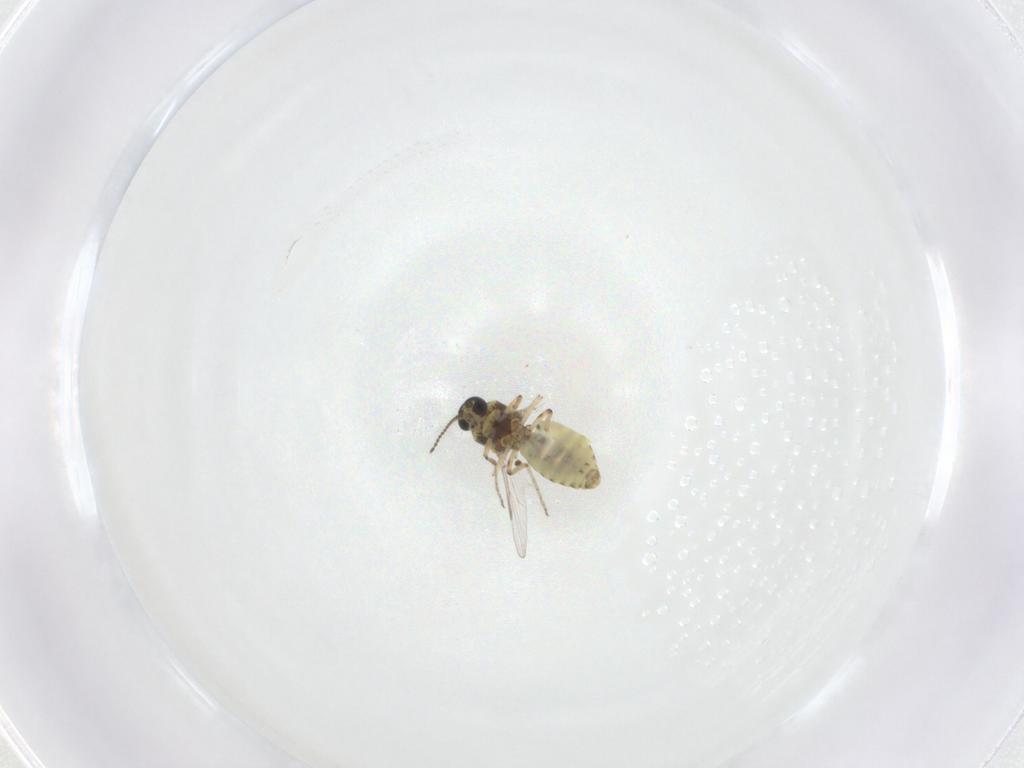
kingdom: Animalia
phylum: Arthropoda
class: Insecta
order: Diptera
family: Ceratopogonidae
